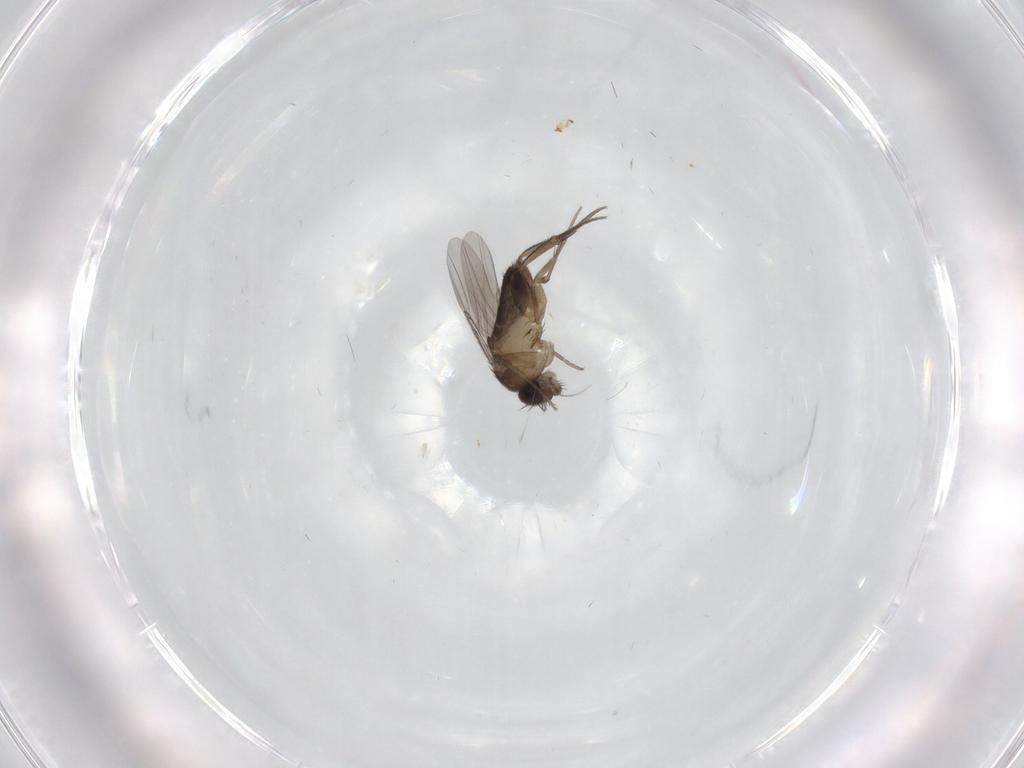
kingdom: Animalia
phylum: Arthropoda
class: Insecta
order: Diptera
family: Phoridae
